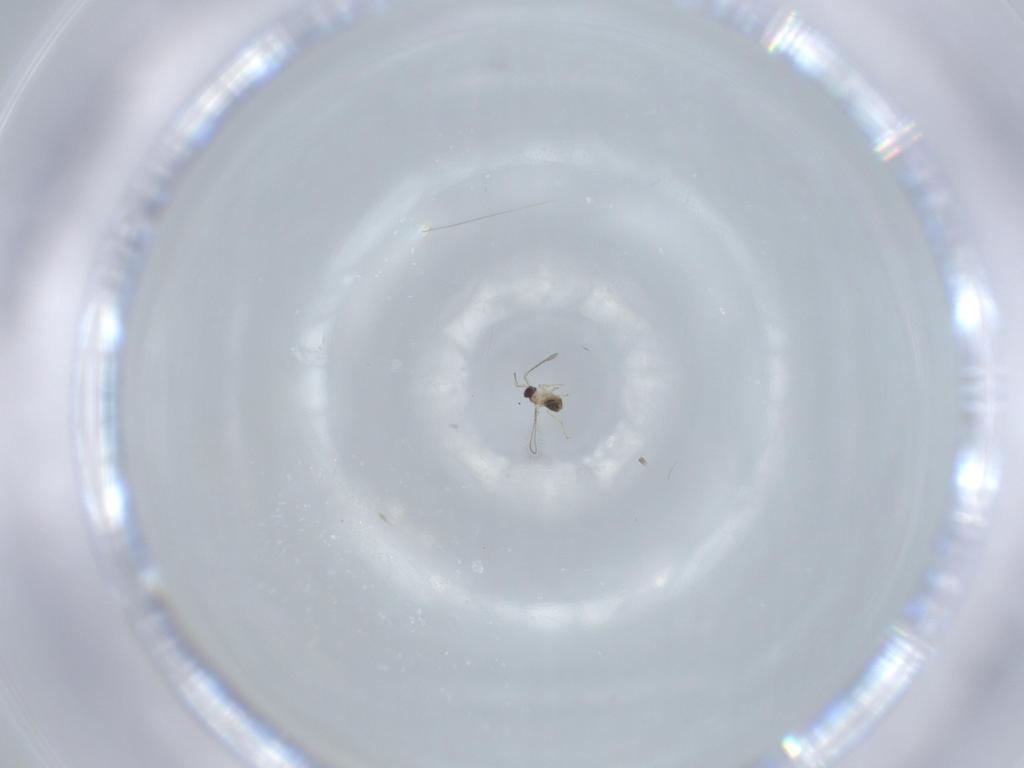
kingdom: Animalia
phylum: Arthropoda
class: Insecta
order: Hymenoptera
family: Mymaridae
